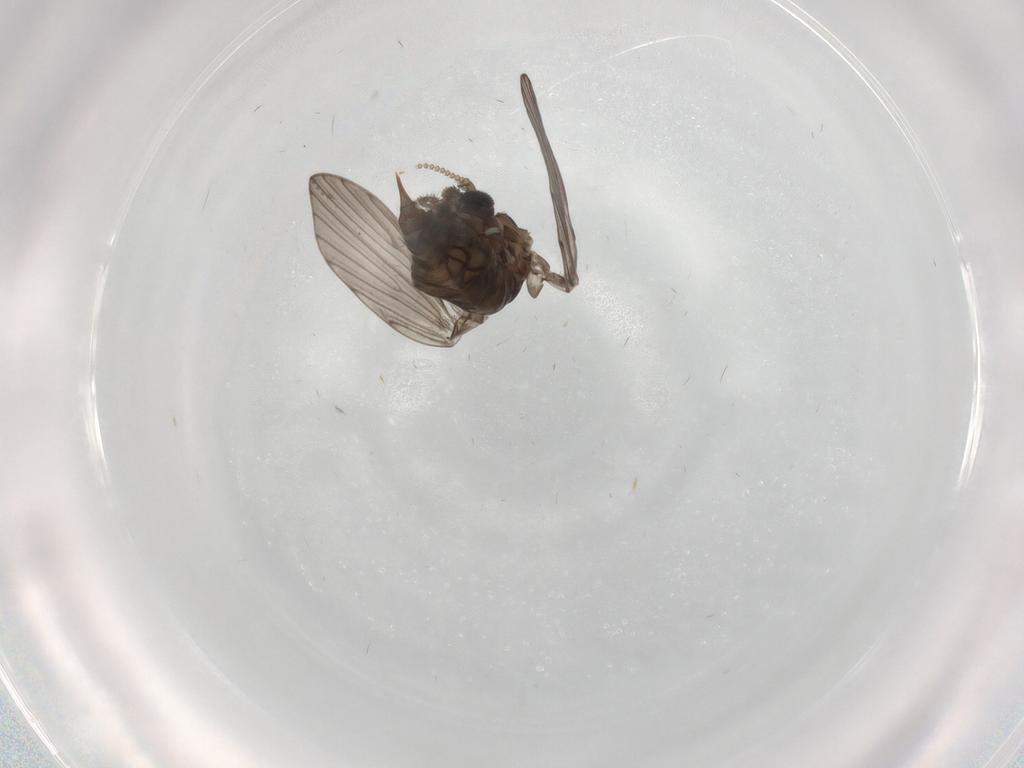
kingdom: Animalia
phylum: Arthropoda
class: Insecta
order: Diptera
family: Psychodidae
